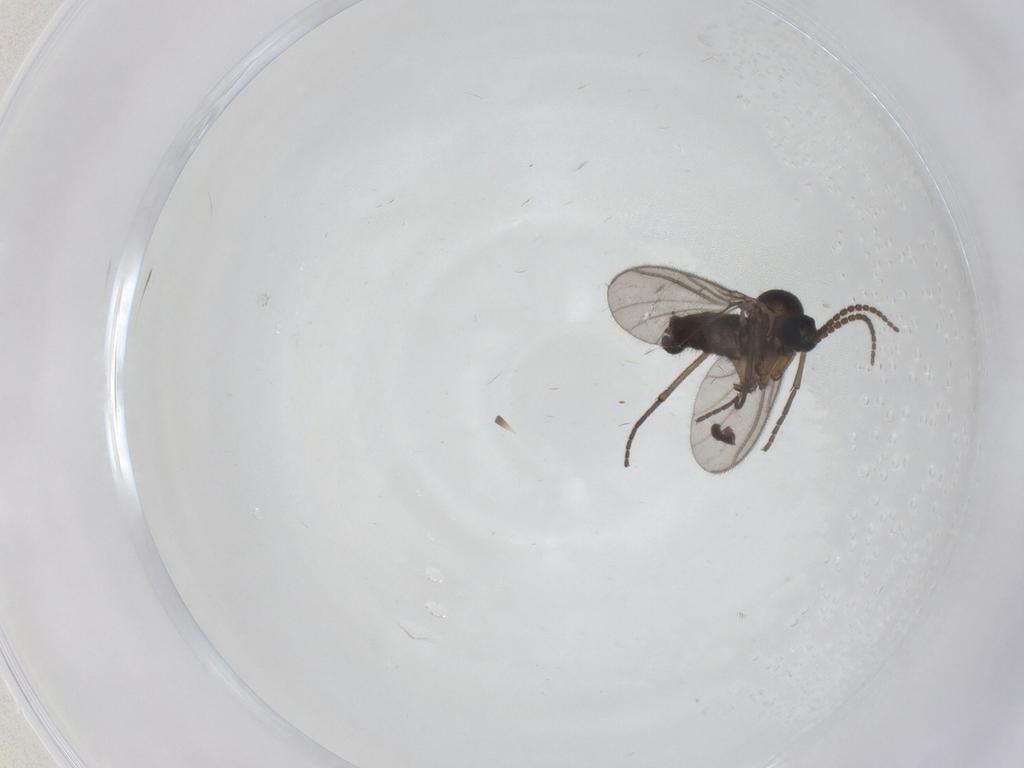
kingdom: Animalia
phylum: Arthropoda
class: Insecta
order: Diptera
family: Sciaridae
